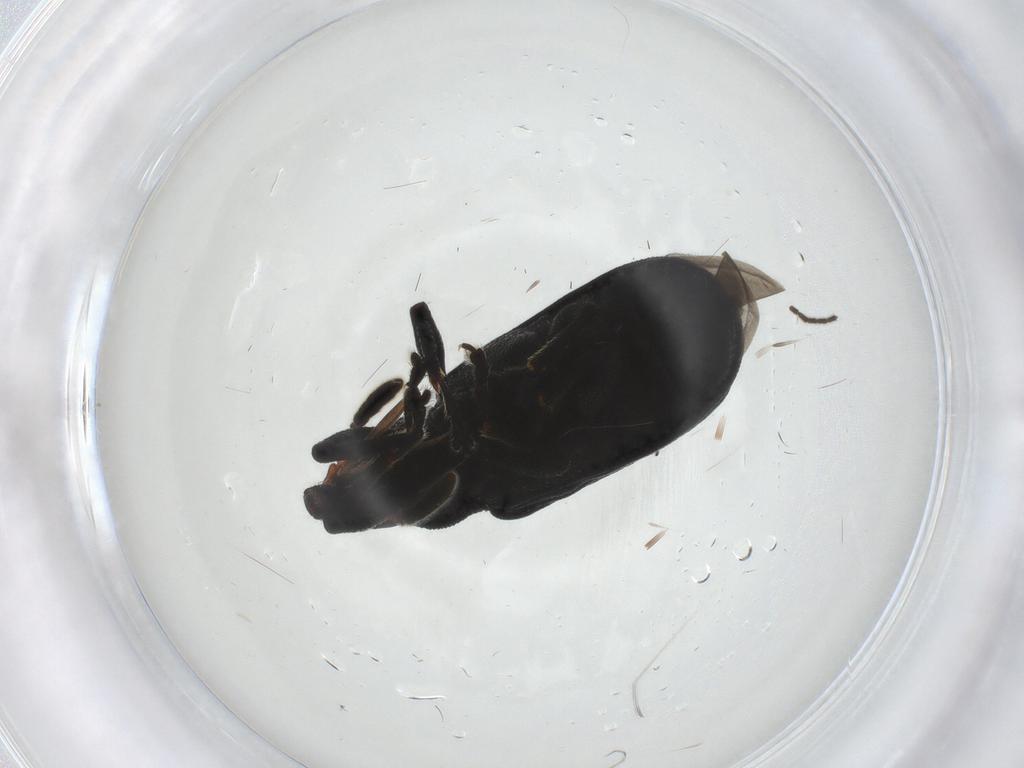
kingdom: Animalia
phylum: Arthropoda
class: Insecta
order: Coleoptera
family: Curculionidae
